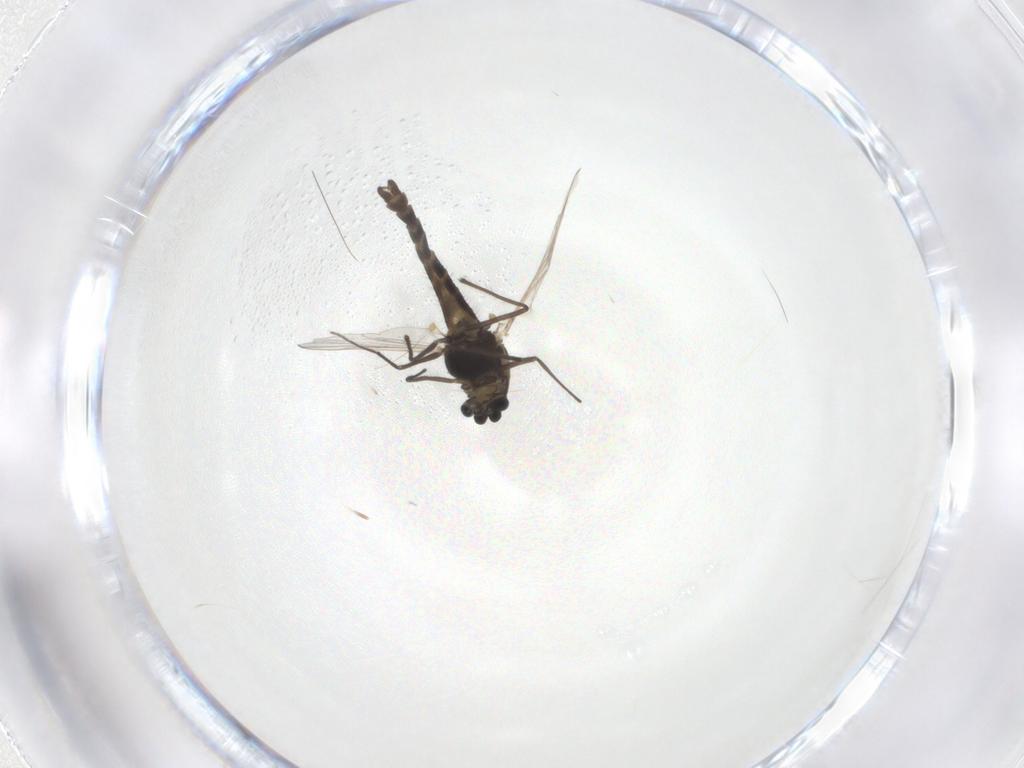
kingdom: Animalia
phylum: Arthropoda
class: Insecta
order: Diptera
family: Chironomidae
